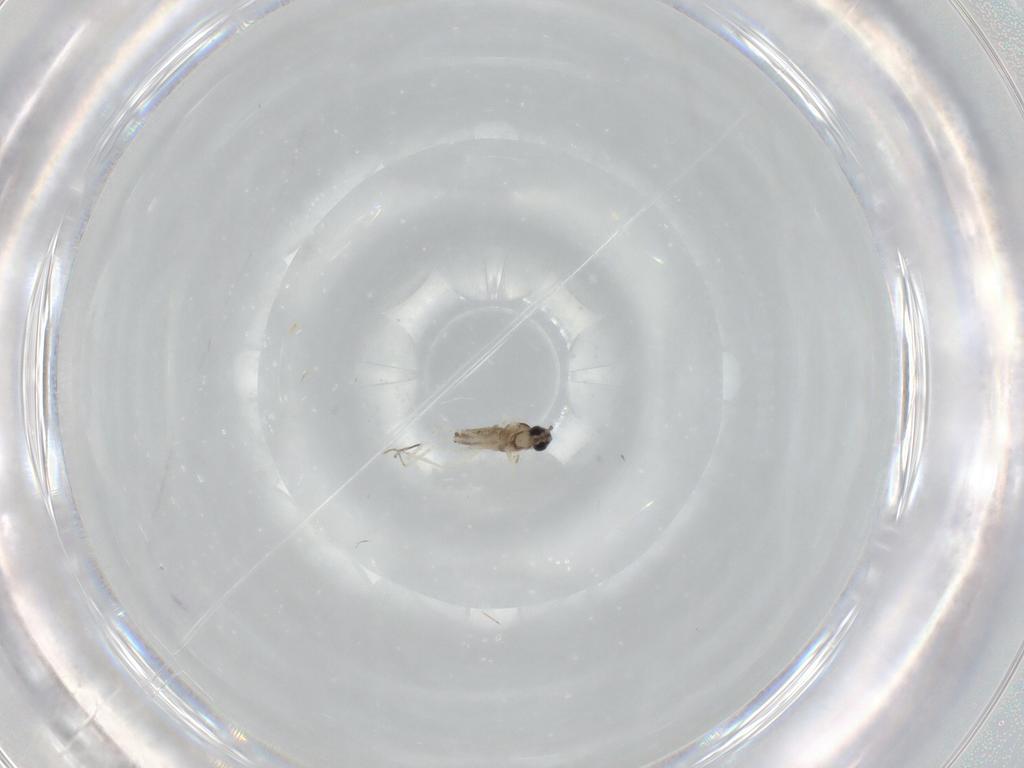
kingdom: Animalia
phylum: Arthropoda
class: Insecta
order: Diptera
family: Cecidomyiidae
